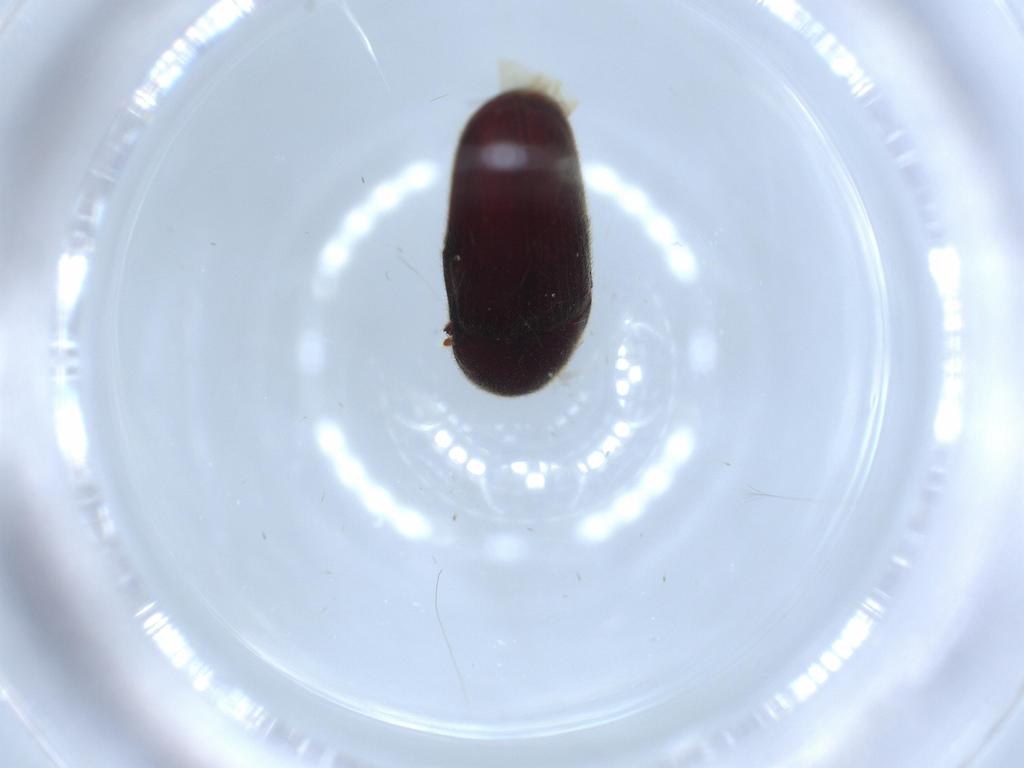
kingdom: Animalia
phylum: Arthropoda
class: Insecta
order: Coleoptera
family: Throscidae
